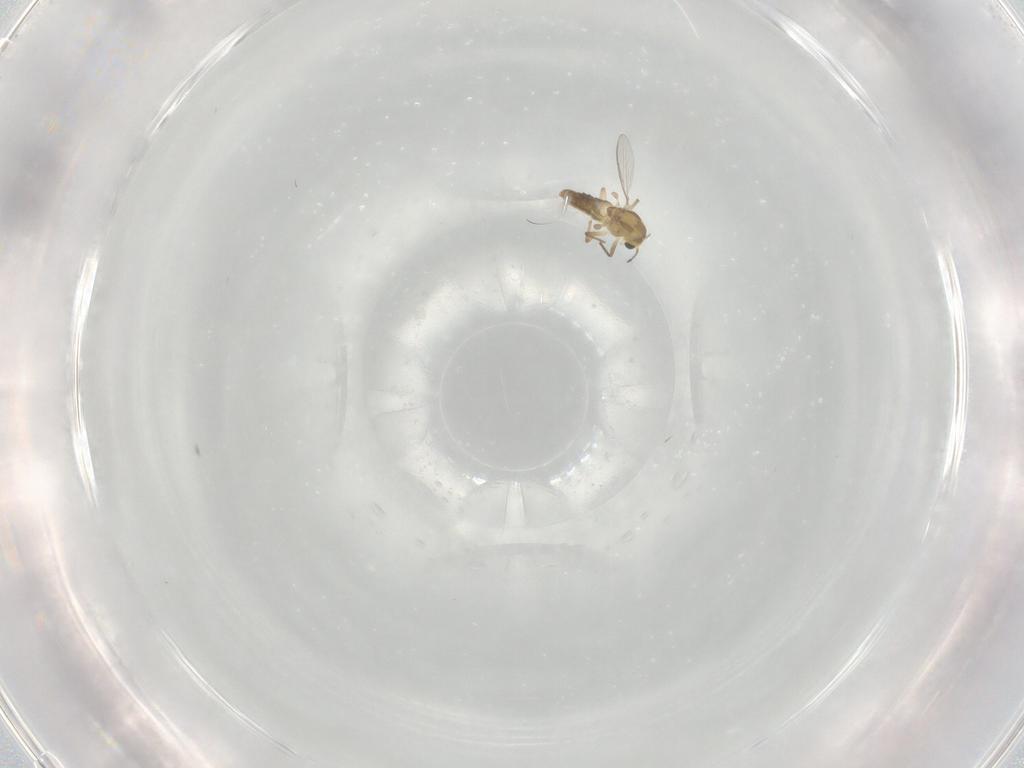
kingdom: Animalia
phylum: Arthropoda
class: Insecta
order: Diptera
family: Chironomidae
